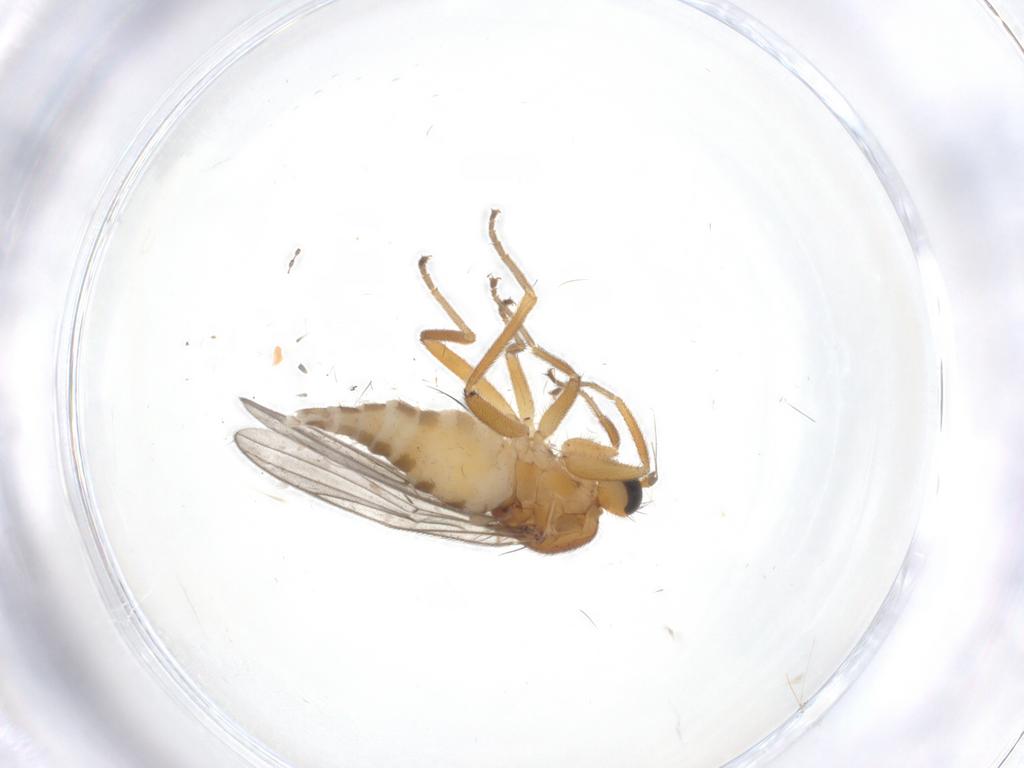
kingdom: Animalia
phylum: Arthropoda
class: Insecta
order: Diptera
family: Hybotidae
